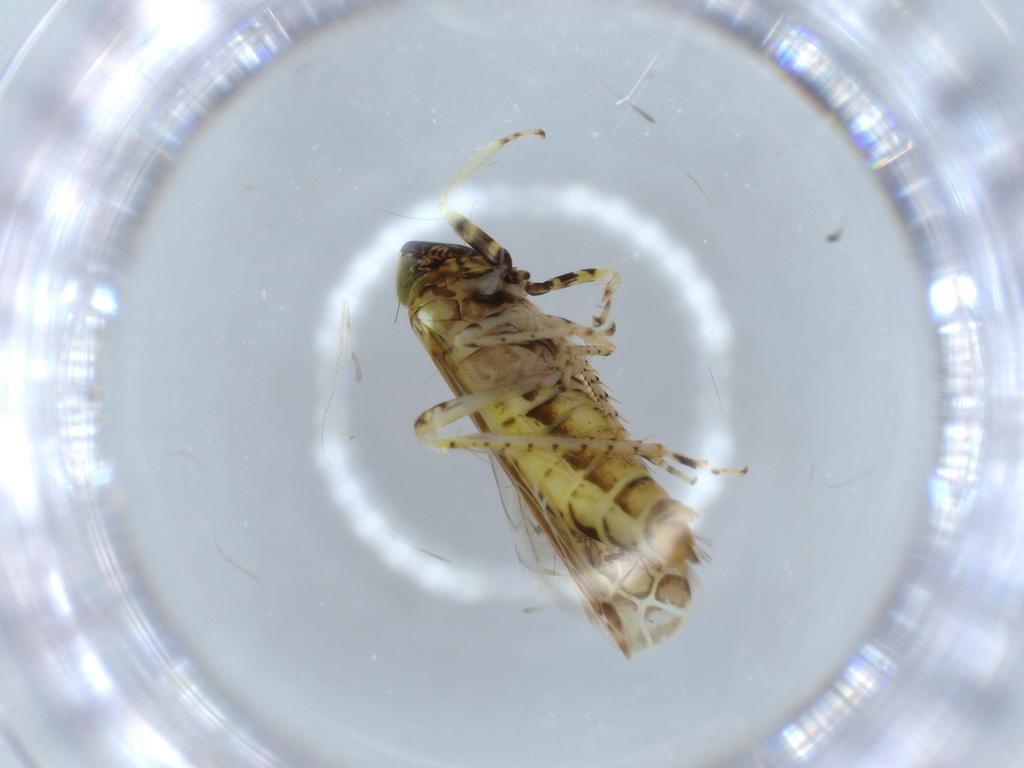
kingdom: Animalia
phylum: Arthropoda
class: Insecta
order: Hemiptera
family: Cicadellidae
